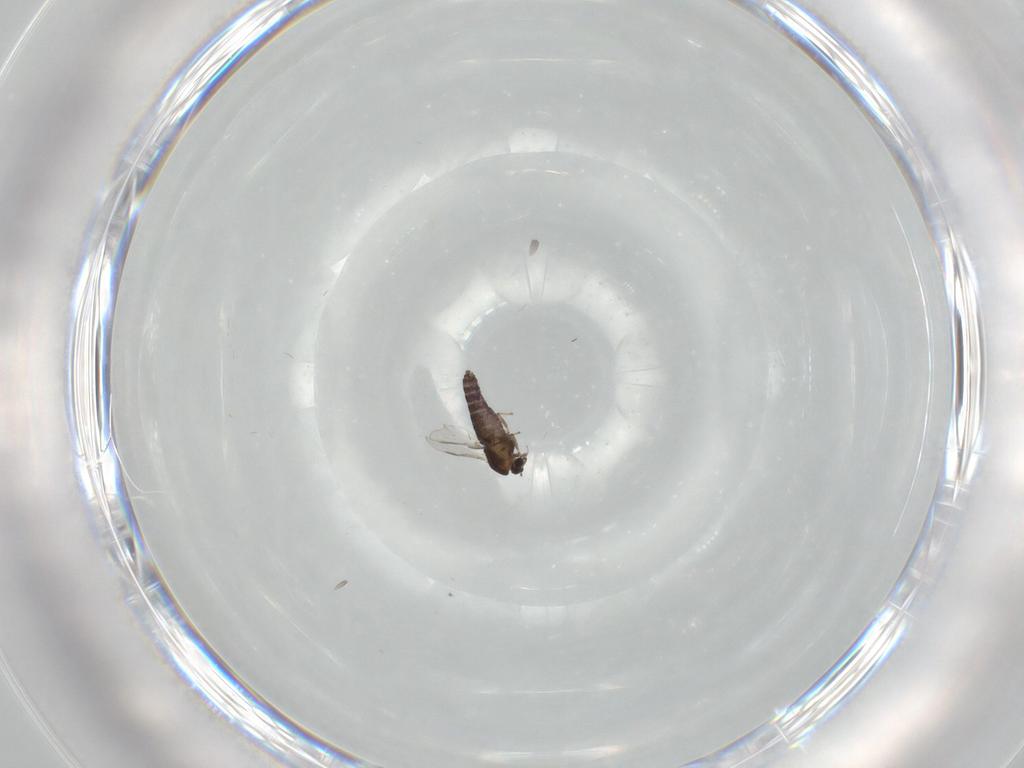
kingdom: Animalia
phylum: Arthropoda
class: Insecta
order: Diptera
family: Chironomidae
